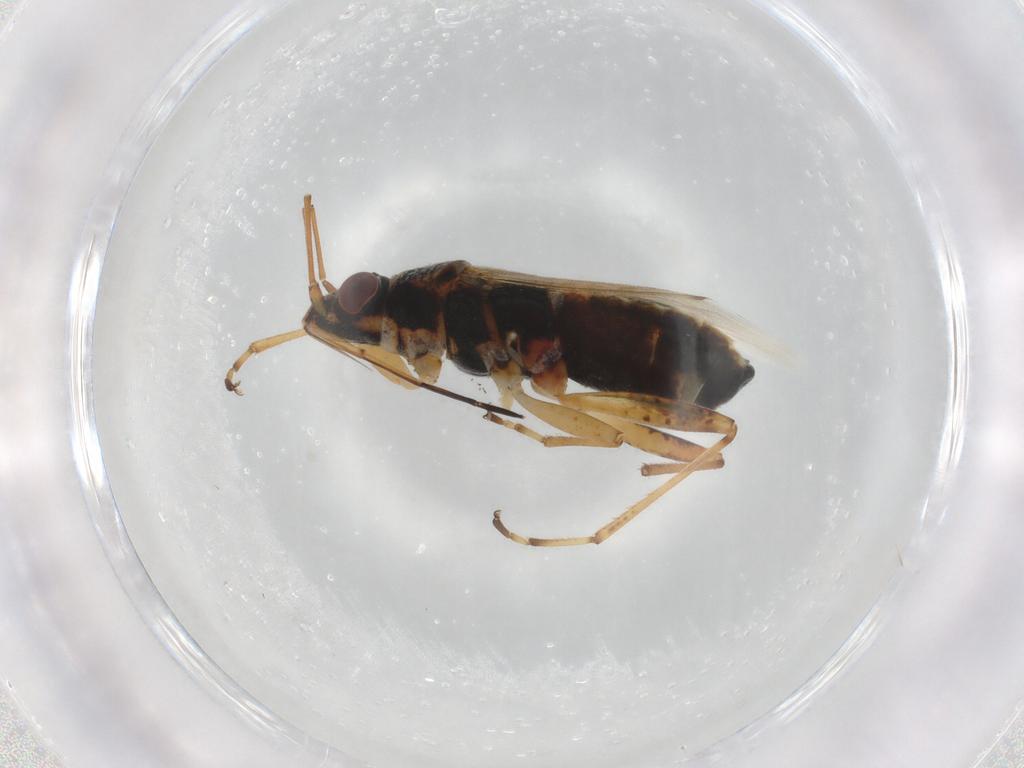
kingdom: Animalia
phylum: Arthropoda
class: Insecta
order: Hemiptera
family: Lygaeidae
